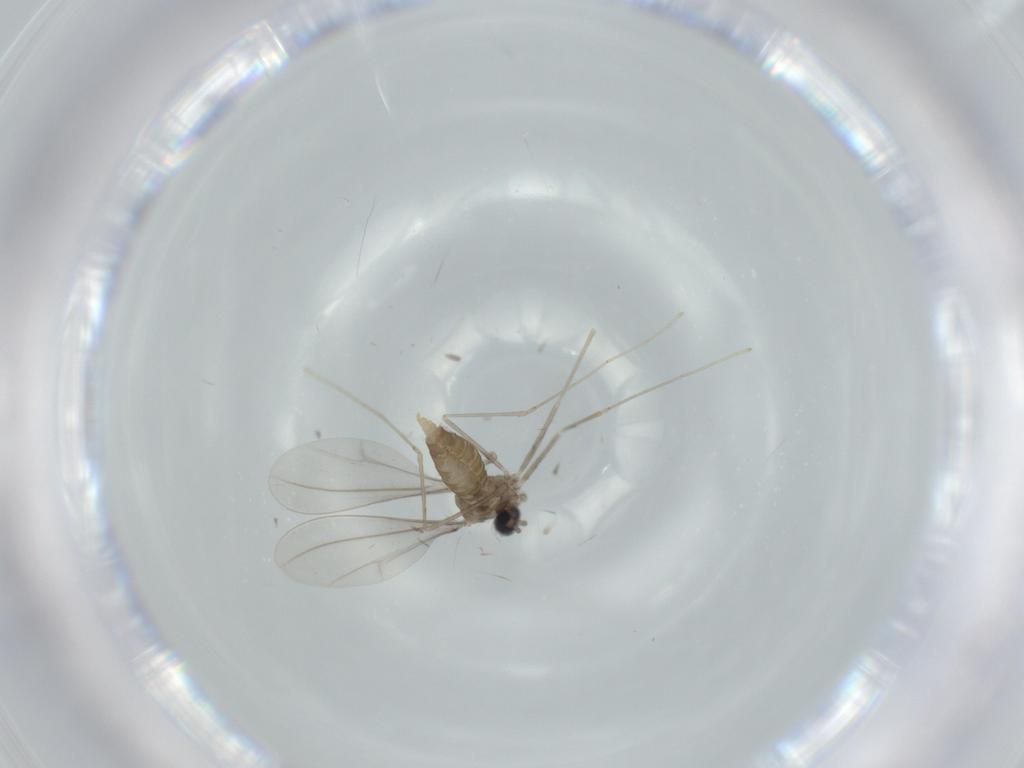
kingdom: Animalia
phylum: Arthropoda
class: Insecta
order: Diptera
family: Cecidomyiidae
